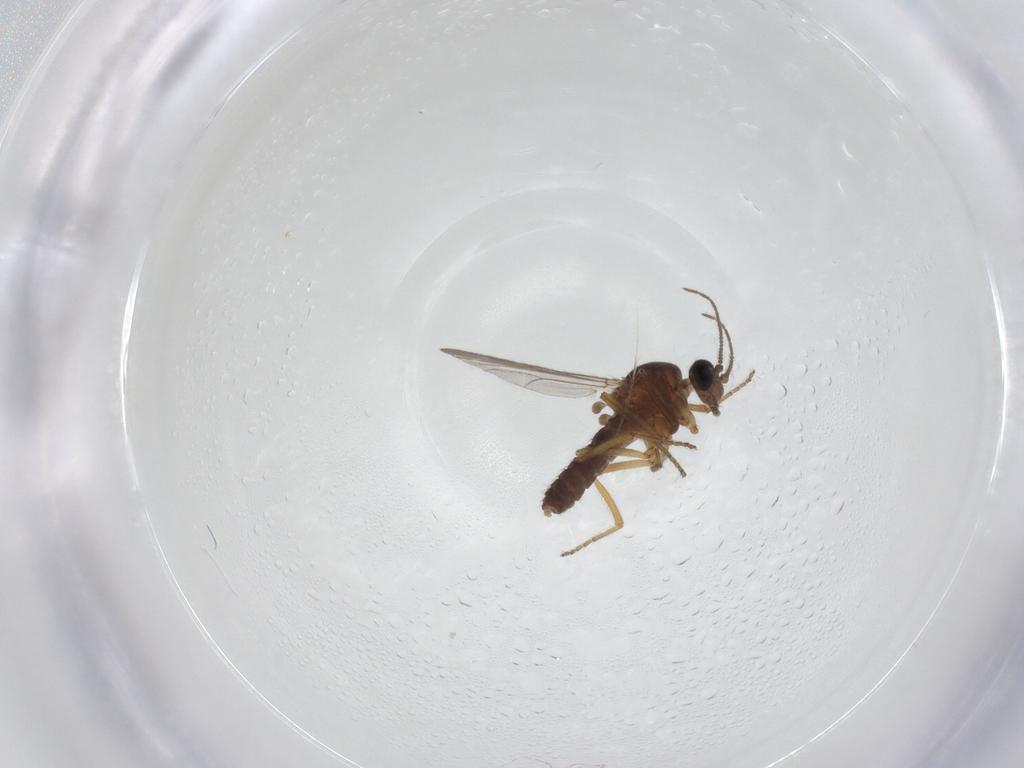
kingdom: Animalia
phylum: Arthropoda
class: Insecta
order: Diptera
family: Ceratopogonidae
